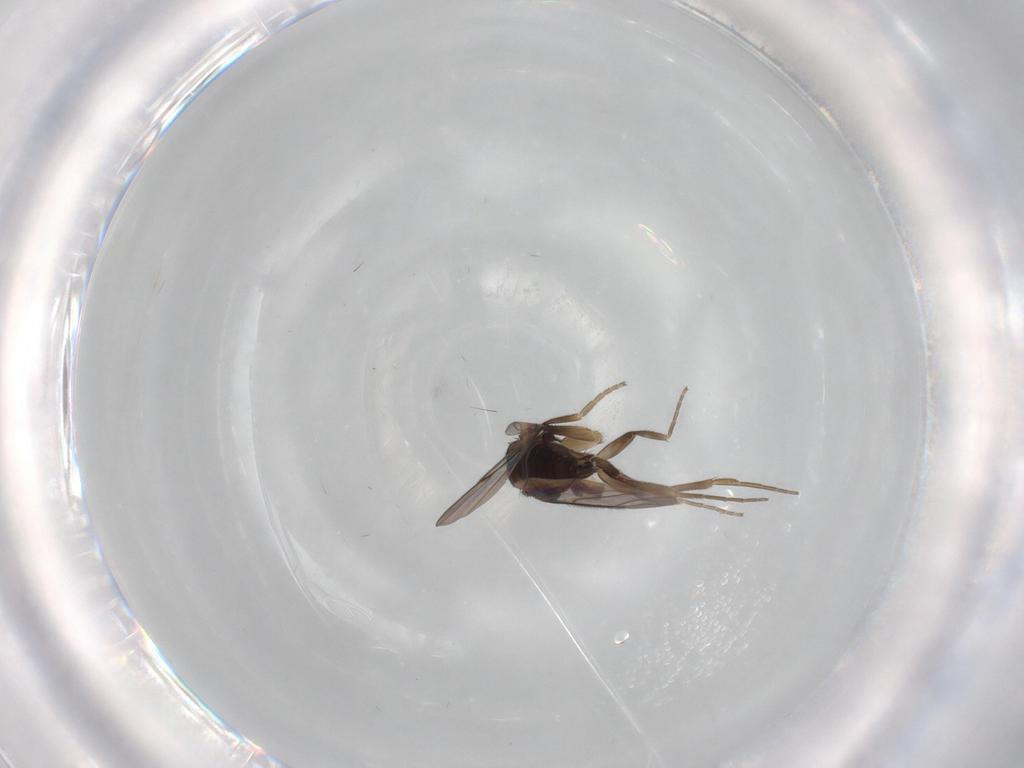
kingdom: Animalia
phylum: Arthropoda
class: Insecta
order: Diptera
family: Phoridae
